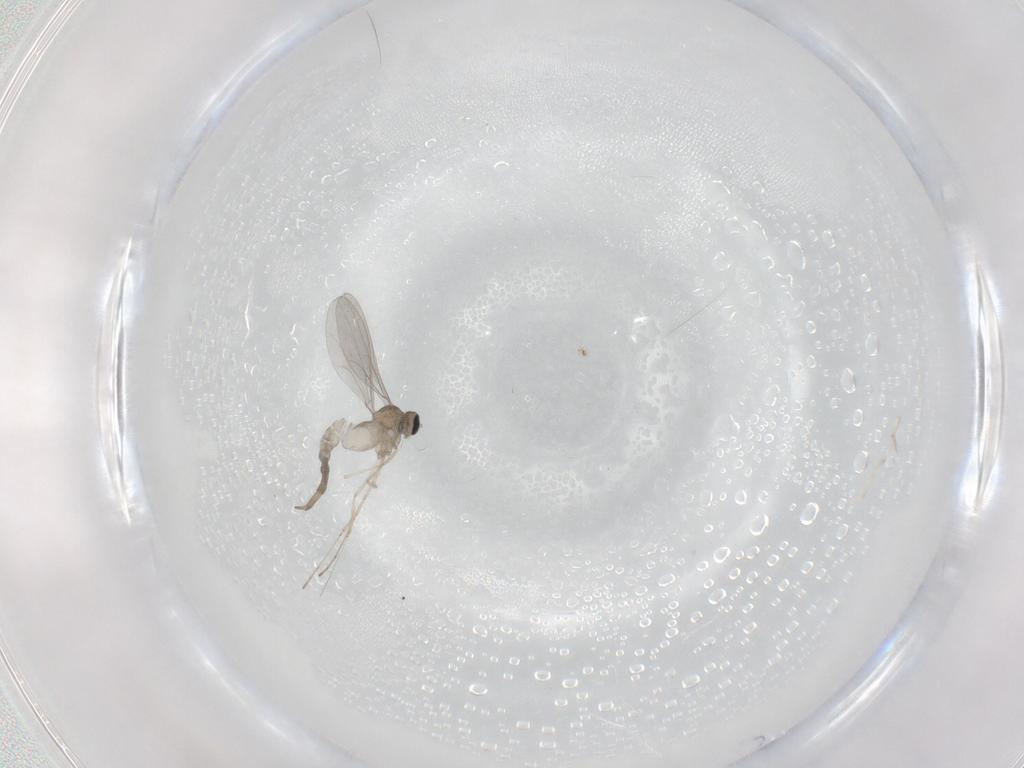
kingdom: Animalia
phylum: Arthropoda
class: Insecta
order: Diptera
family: Cecidomyiidae
